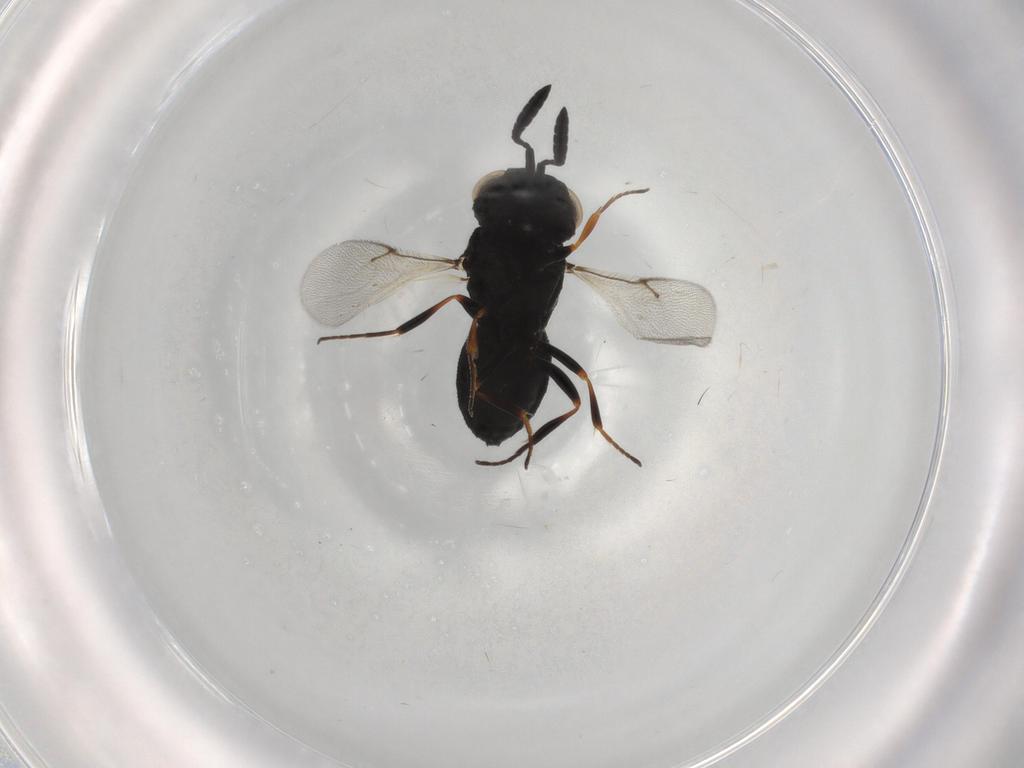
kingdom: Animalia
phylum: Arthropoda
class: Insecta
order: Hymenoptera
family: Scelionidae
